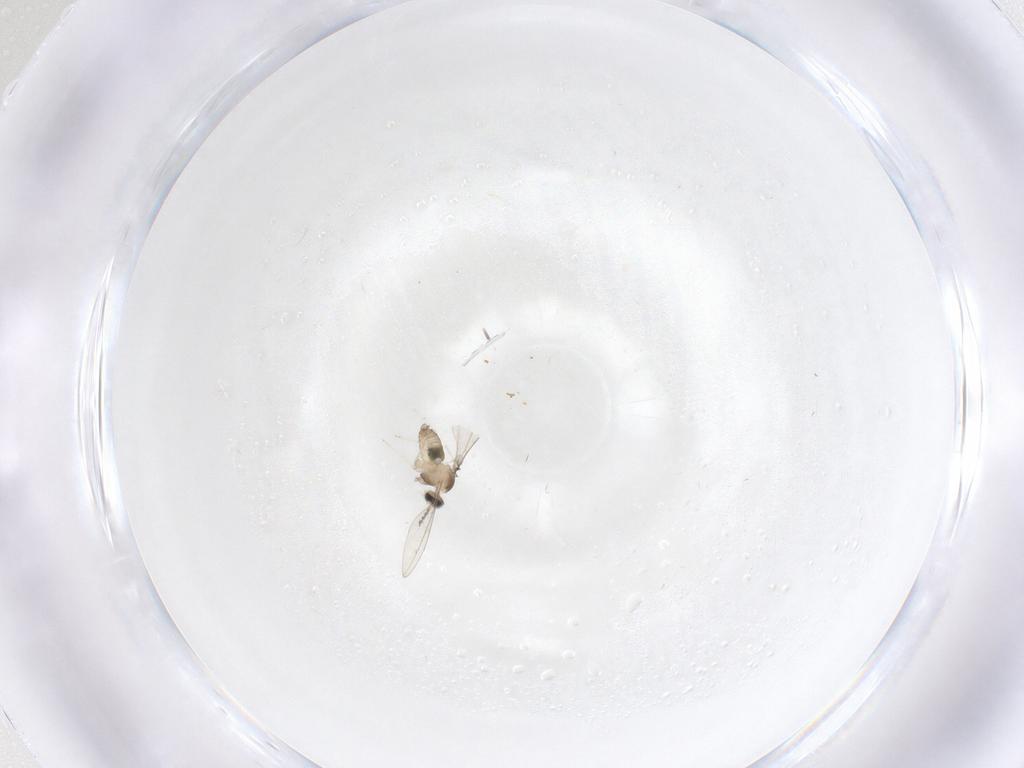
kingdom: Animalia
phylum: Arthropoda
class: Insecta
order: Diptera
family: Cecidomyiidae
